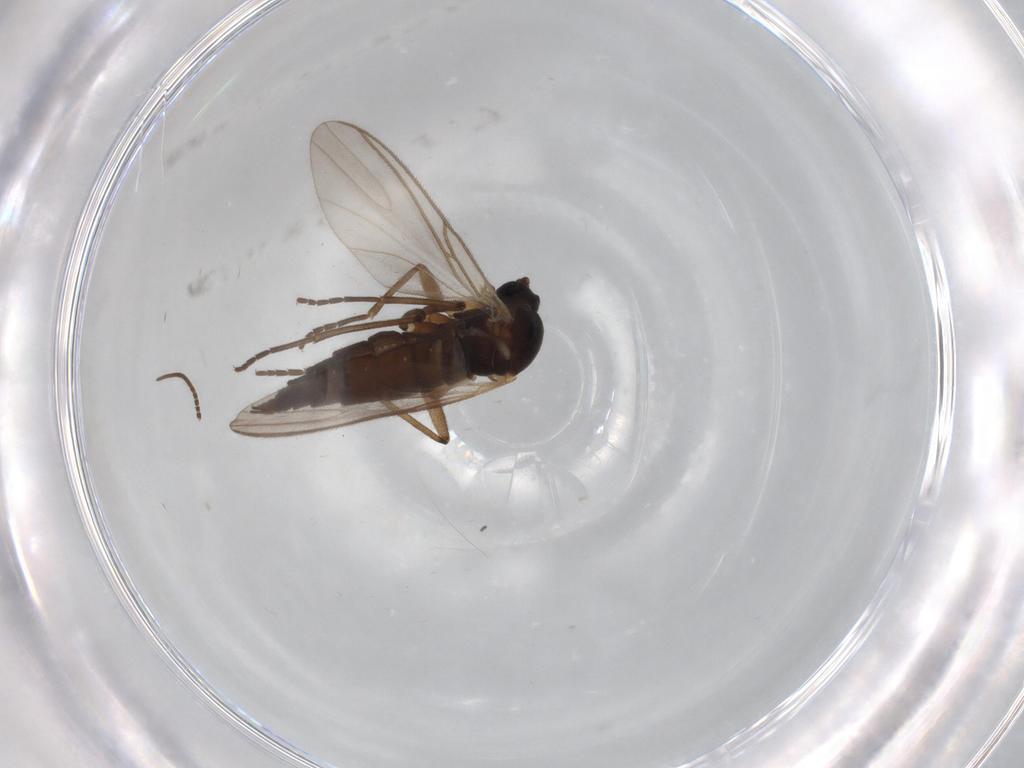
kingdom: Animalia
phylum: Arthropoda
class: Insecta
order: Diptera
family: Sciaridae
